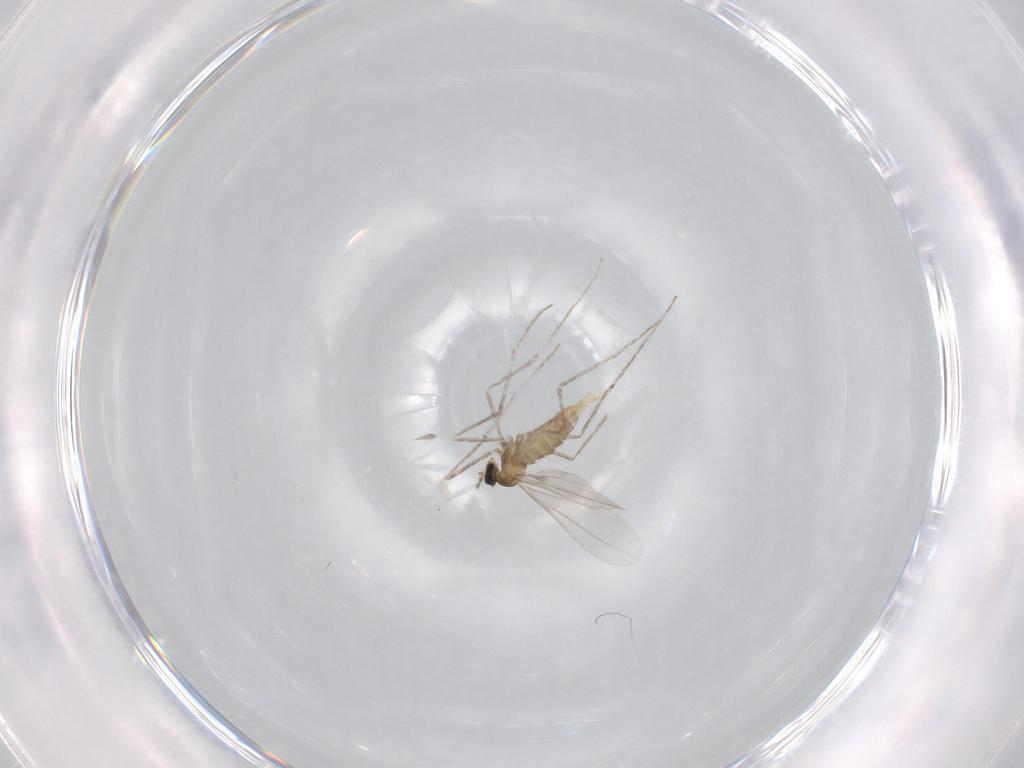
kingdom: Animalia
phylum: Arthropoda
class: Insecta
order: Diptera
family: Cecidomyiidae
